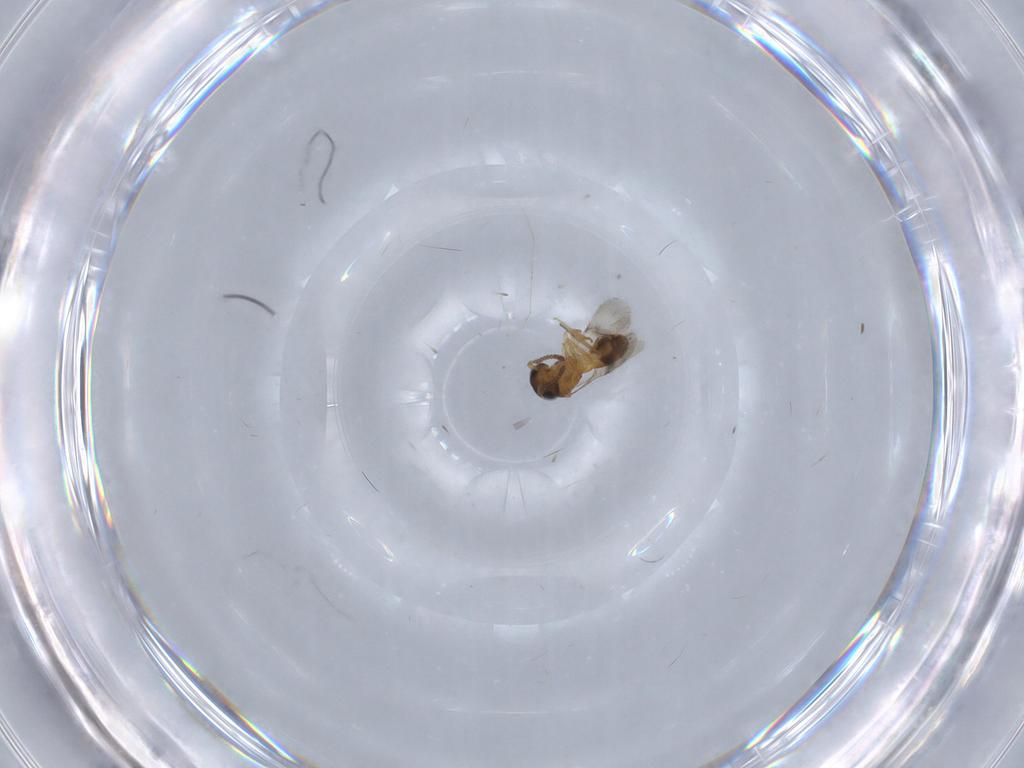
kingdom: Animalia
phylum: Arthropoda
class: Insecta
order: Hymenoptera
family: Scelionidae
